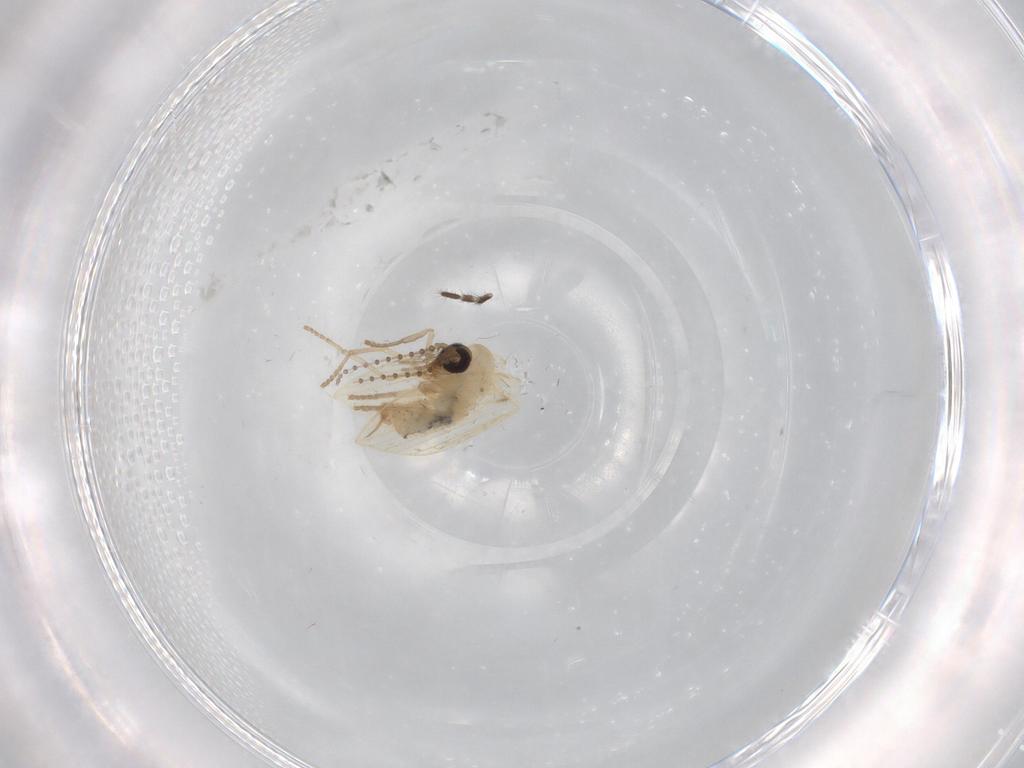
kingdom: Animalia
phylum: Arthropoda
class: Insecta
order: Diptera
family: Psychodidae
